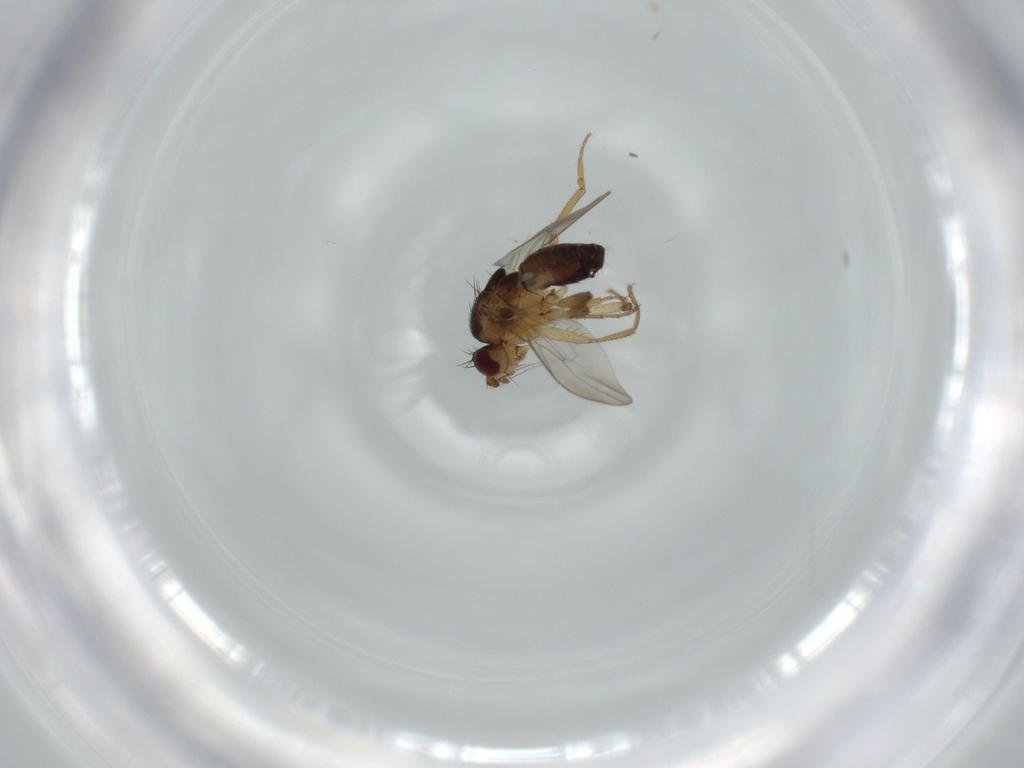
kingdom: Animalia
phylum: Arthropoda
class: Insecta
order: Diptera
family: Sphaeroceridae
